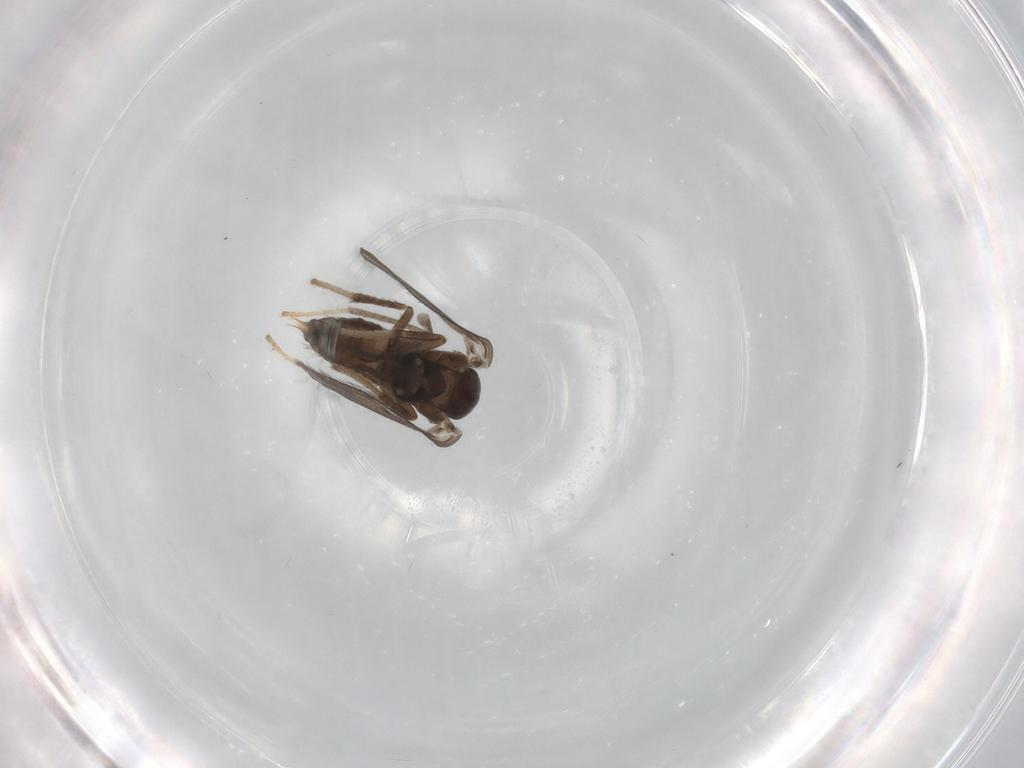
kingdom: Animalia
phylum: Arthropoda
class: Insecta
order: Diptera
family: Psychodidae
